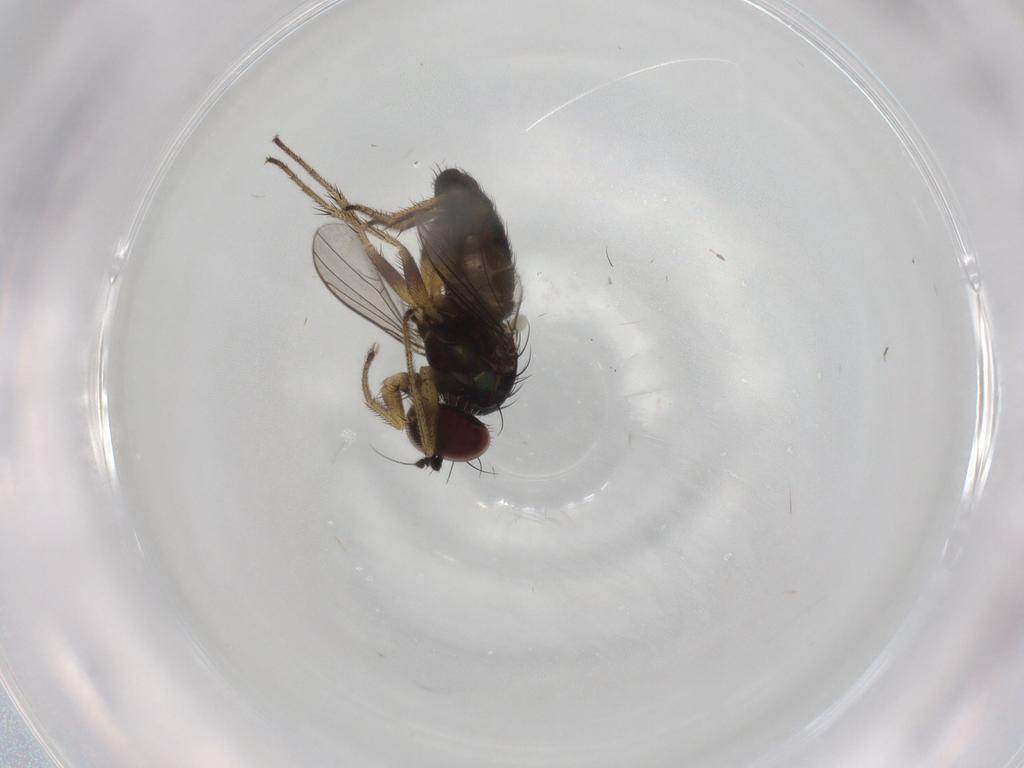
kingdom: Animalia
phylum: Arthropoda
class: Insecta
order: Diptera
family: Dolichopodidae
